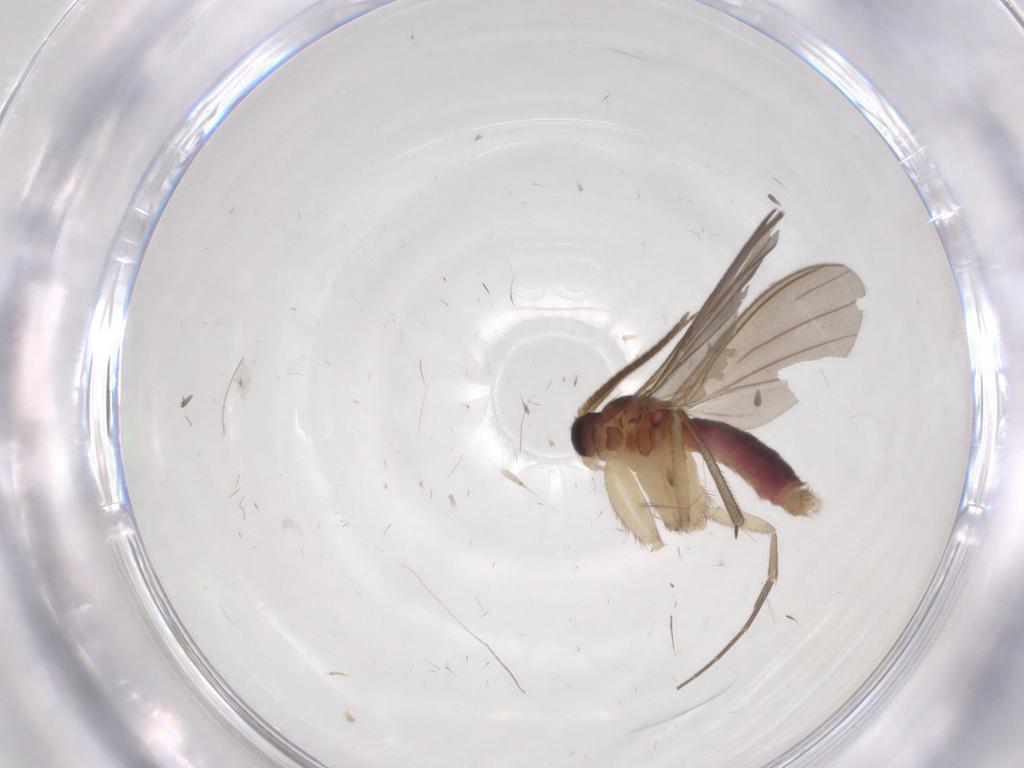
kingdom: Animalia
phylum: Arthropoda
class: Insecta
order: Diptera
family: Mycetophilidae
